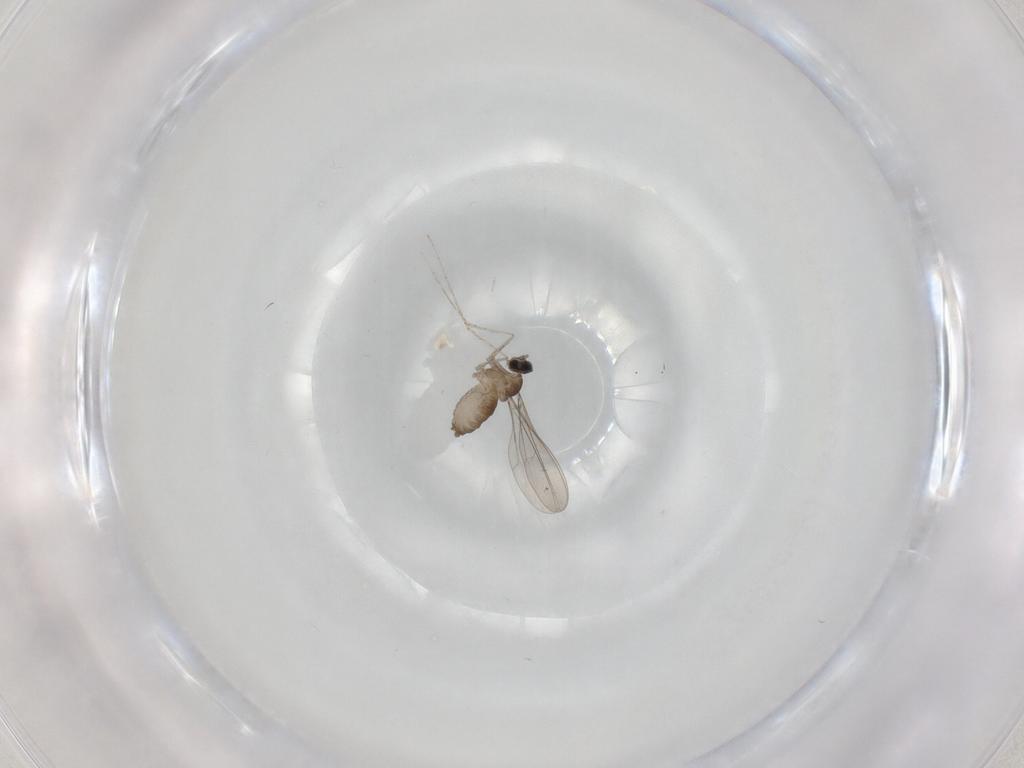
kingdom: Animalia
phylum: Arthropoda
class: Insecta
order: Diptera
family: Cecidomyiidae
